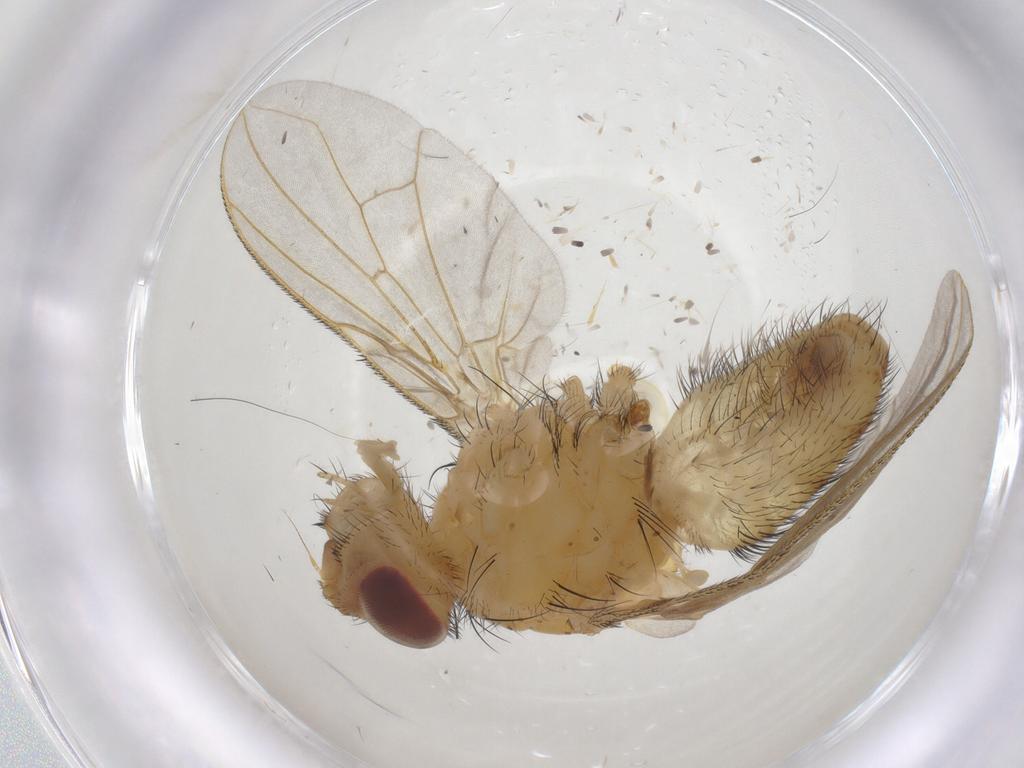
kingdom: Animalia
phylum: Arthropoda
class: Insecta
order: Diptera
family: Tachinidae
